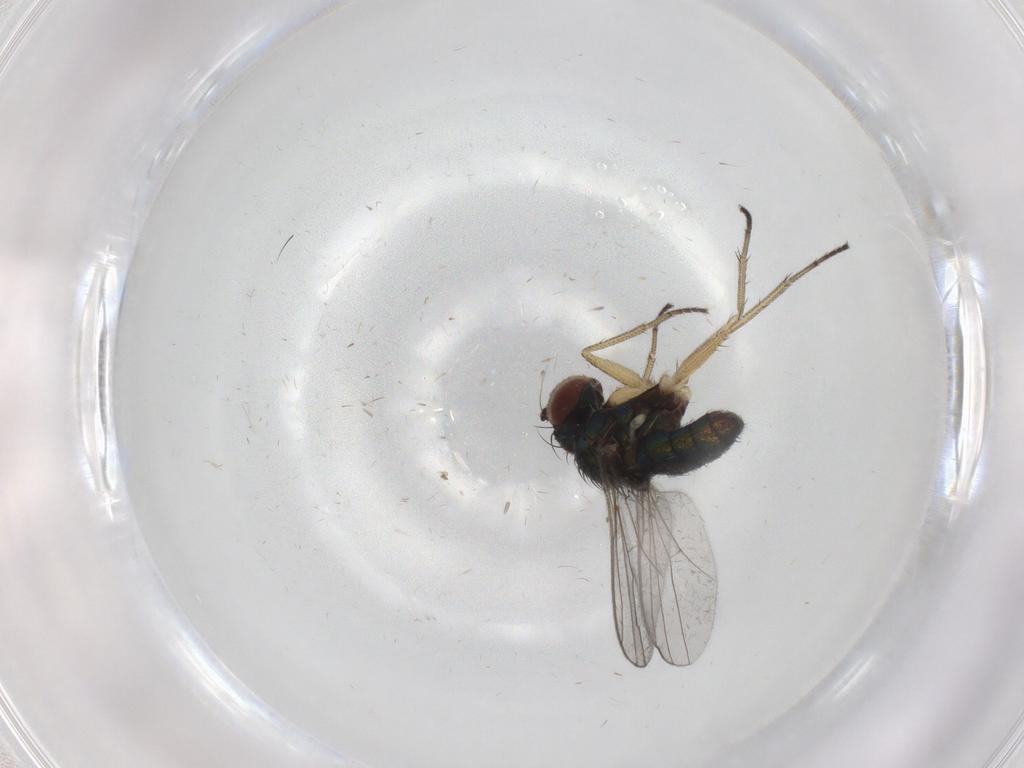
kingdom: Animalia
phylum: Arthropoda
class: Insecta
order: Diptera
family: Ceratopogonidae
